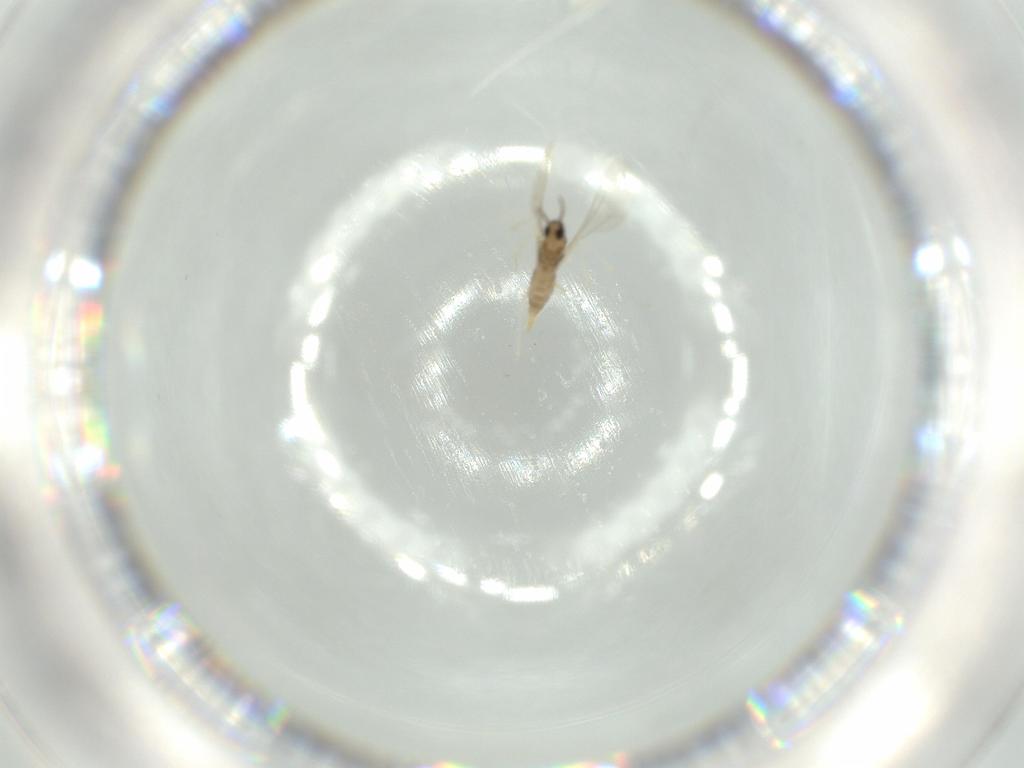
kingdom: Animalia
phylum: Arthropoda
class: Insecta
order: Diptera
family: Cecidomyiidae
